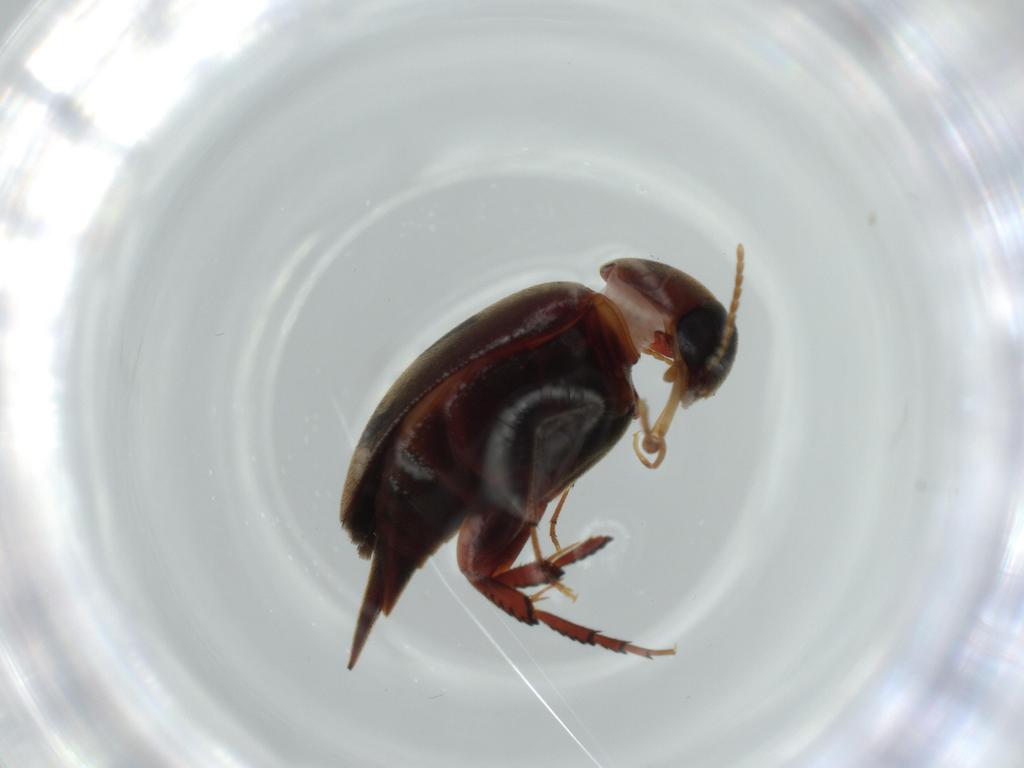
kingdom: Animalia
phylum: Arthropoda
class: Insecta
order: Coleoptera
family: Mordellidae
